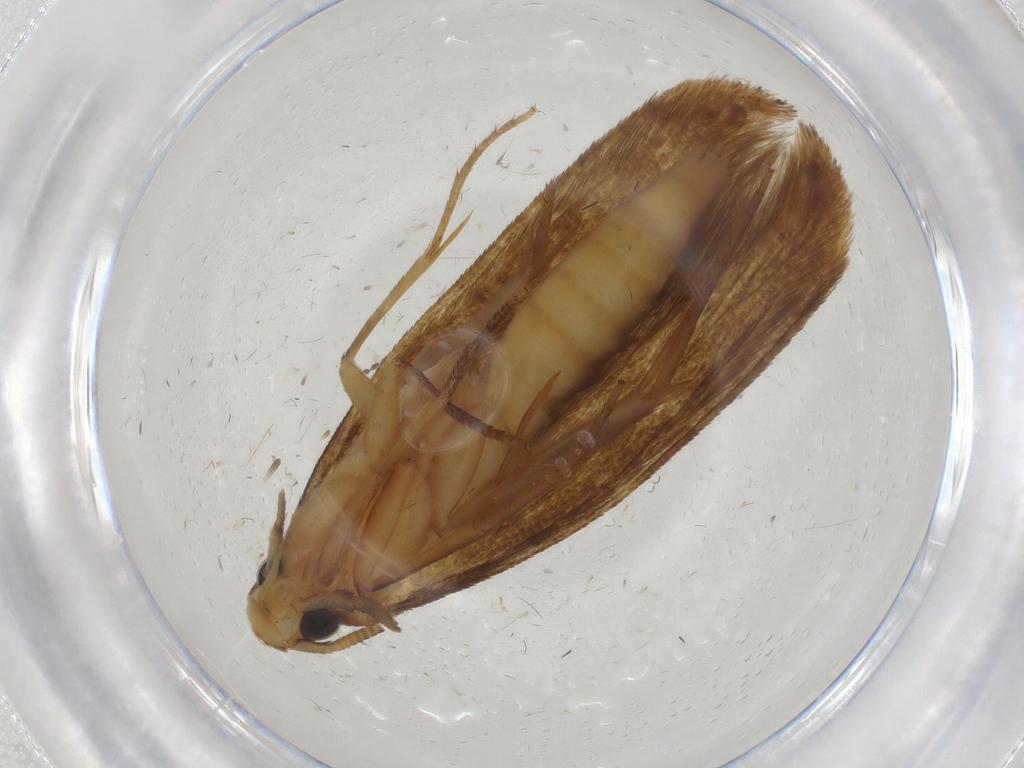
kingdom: Animalia
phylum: Arthropoda
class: Insecta
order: Lepidoptera
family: Tineidae
